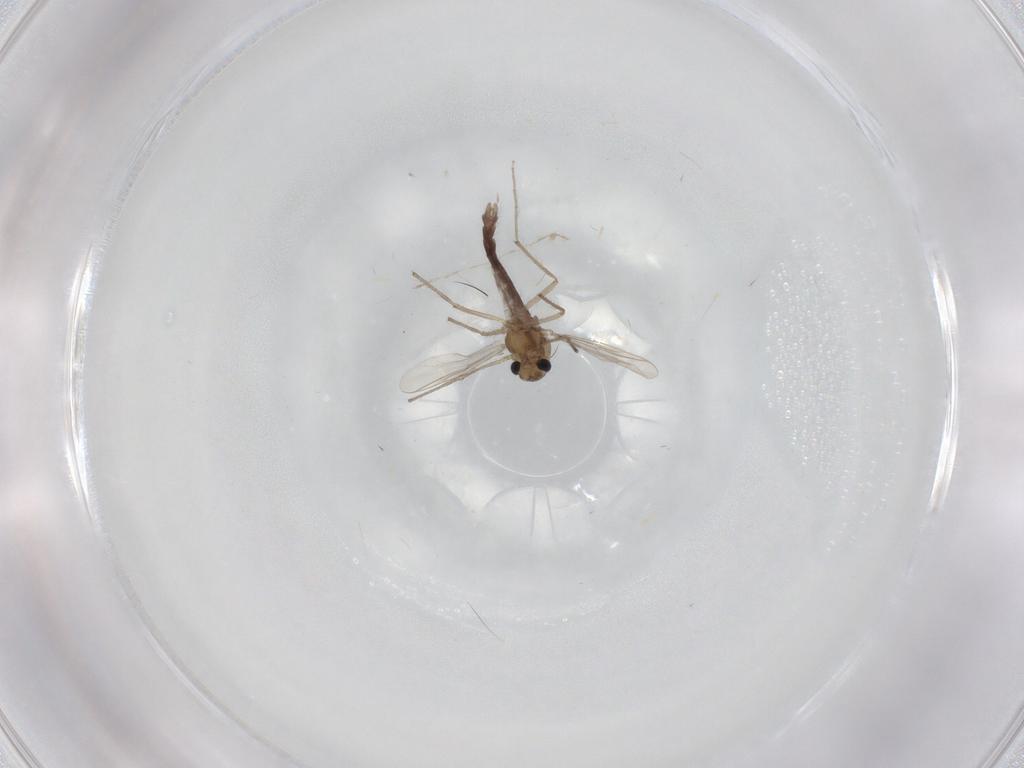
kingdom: Animalia
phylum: Arthropoda
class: Insecta
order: Diptera
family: Chironomidae
